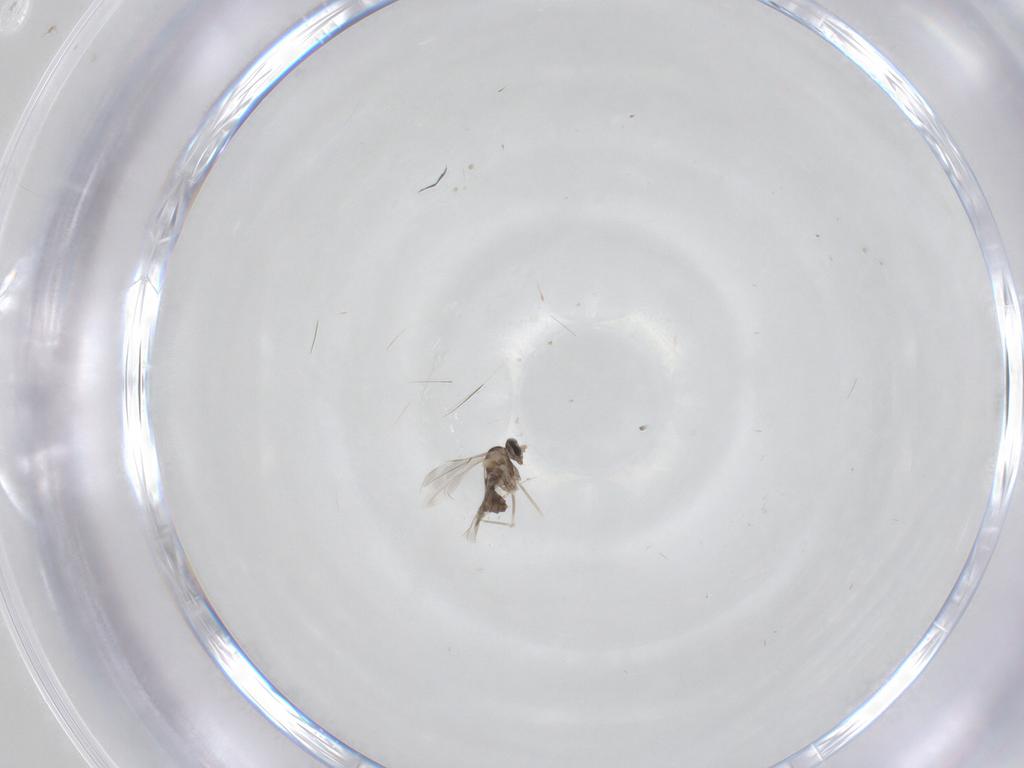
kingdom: Animalia
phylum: Arthropoda
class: Insecta
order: Diptera
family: Cecidomyiidae
